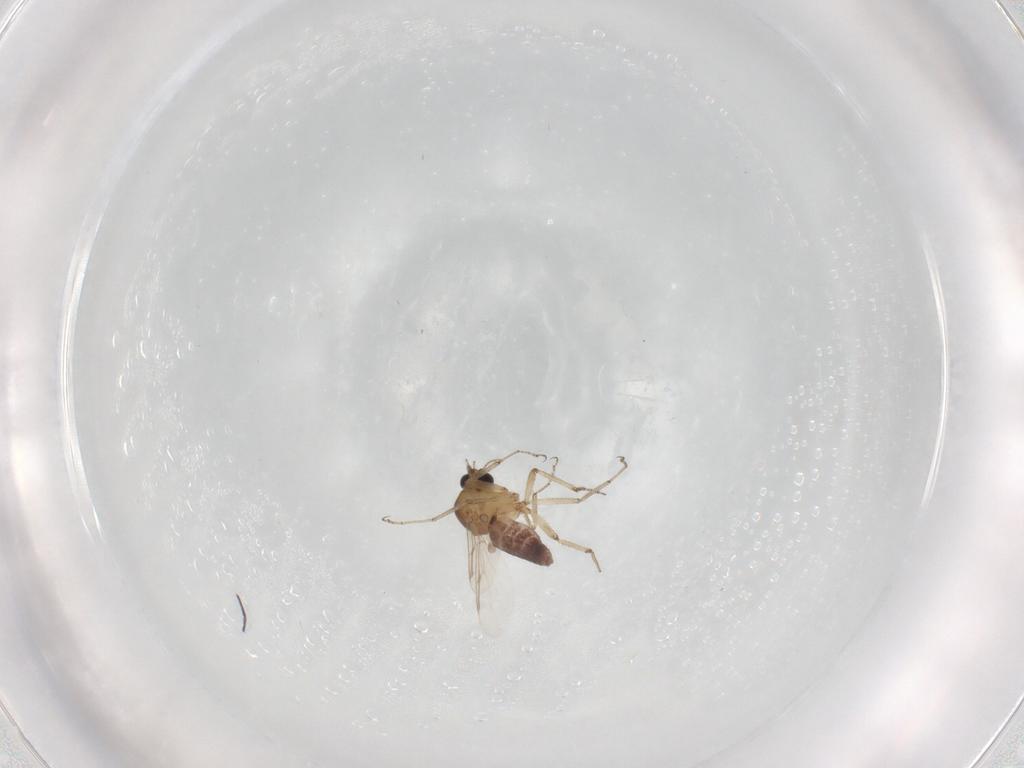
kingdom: Animalia
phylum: Arthropoda
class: Insecta
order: Diptera
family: Ceratopogonidae
